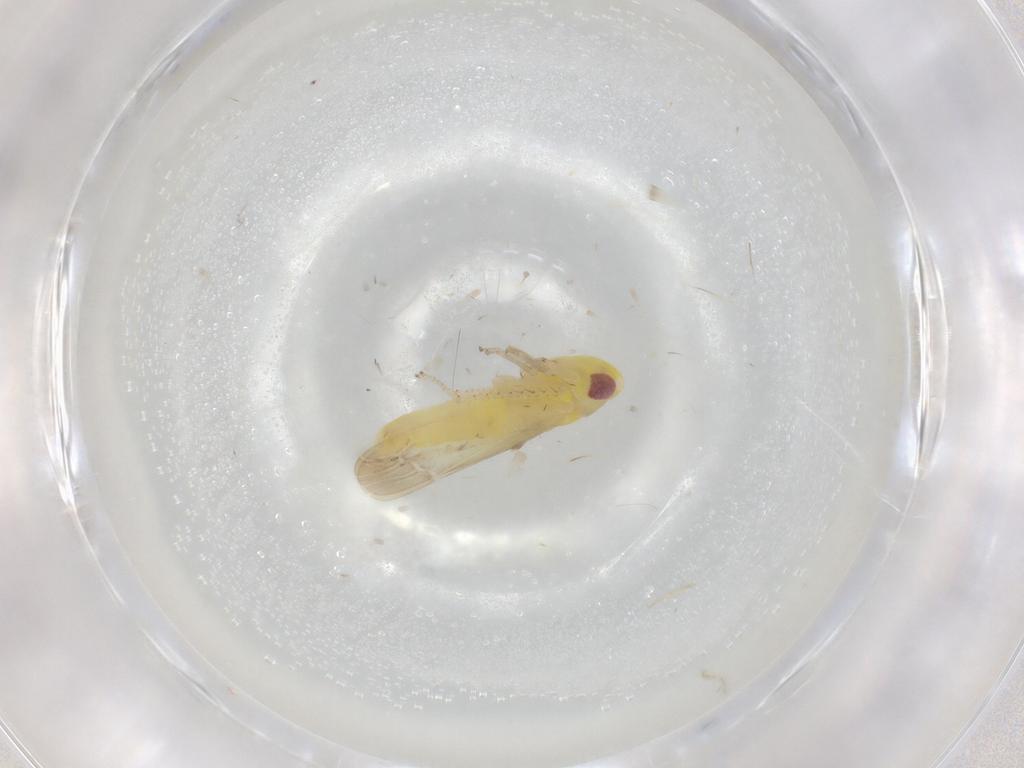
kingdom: Animalia
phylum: Arthropoda
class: Insecta
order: Hemiptera
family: Cicadellidae
